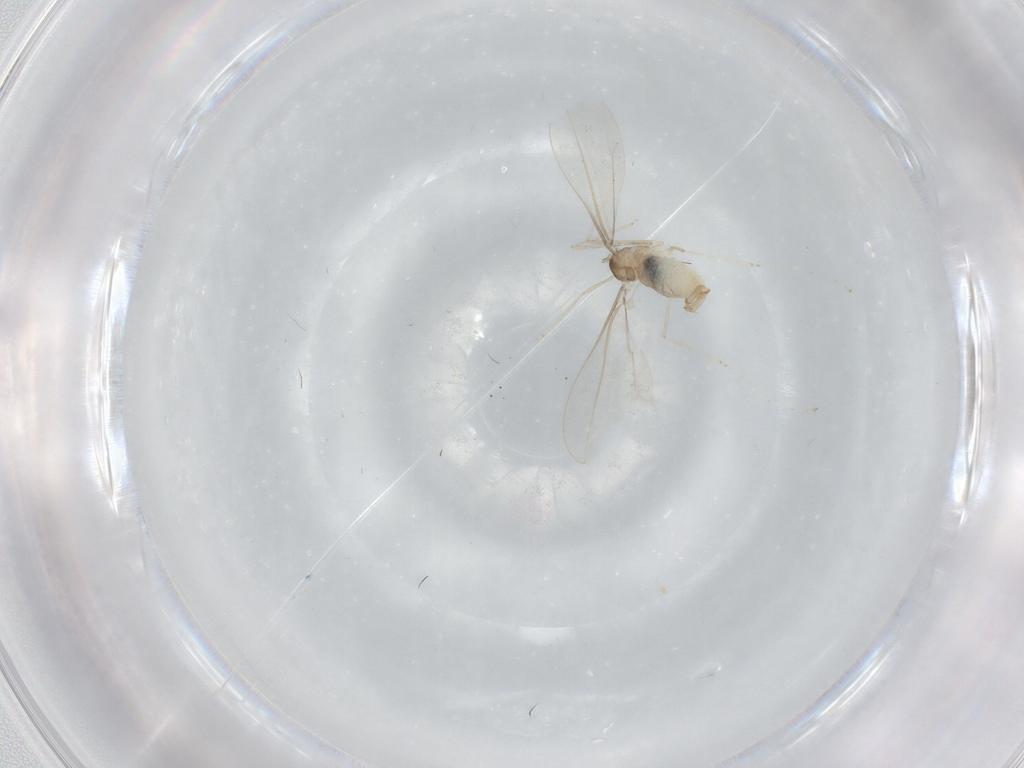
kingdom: Animalia
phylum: Arthropoda
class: Insecta
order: Diptera
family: Cecidomyiidae
